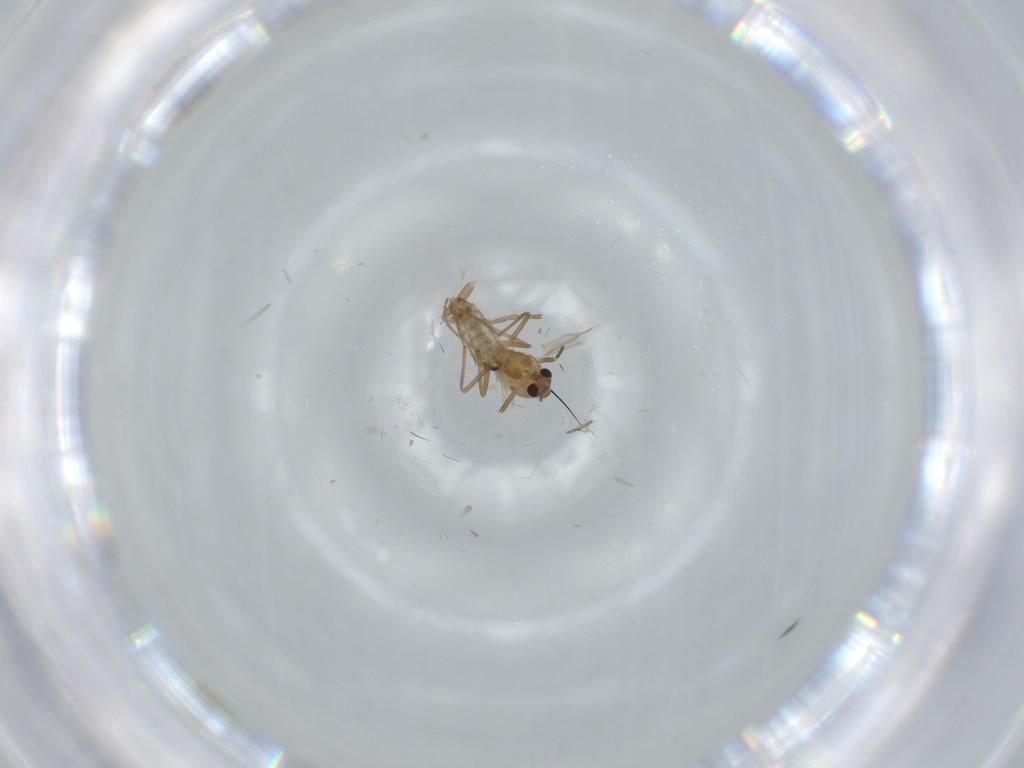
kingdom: Animalia
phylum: Arthropoda
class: Insecta
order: Diptera
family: Chironomidae
